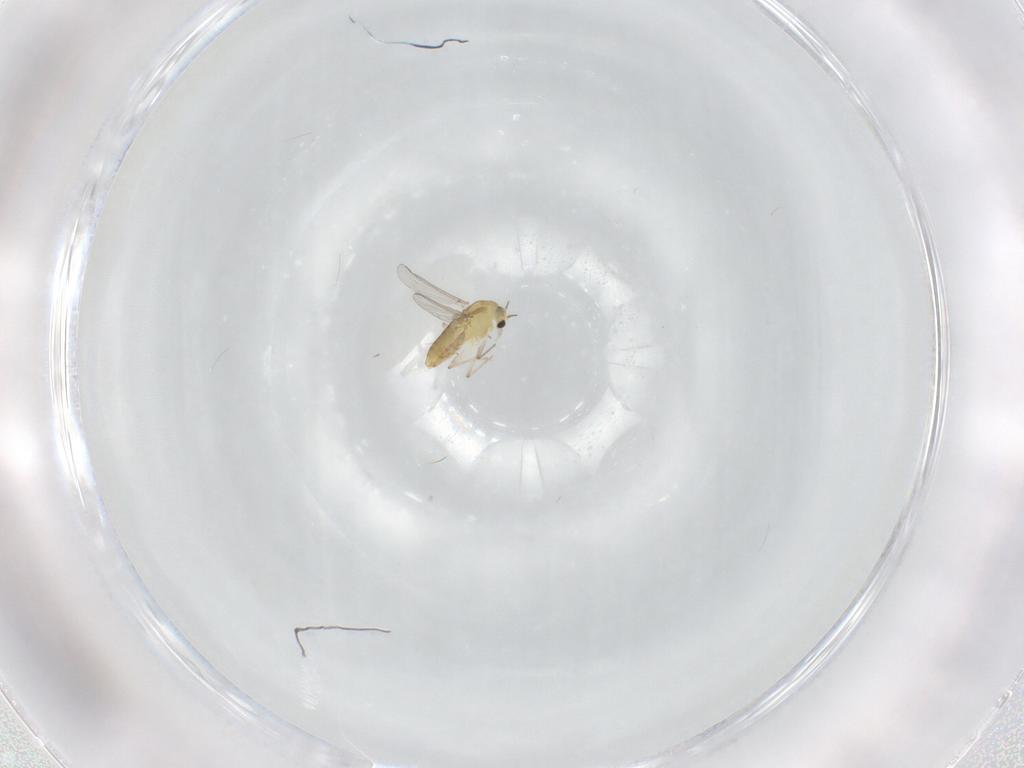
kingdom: Animalia
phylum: Arthropoda
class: Insecta
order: Diptera
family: Chironomidae
